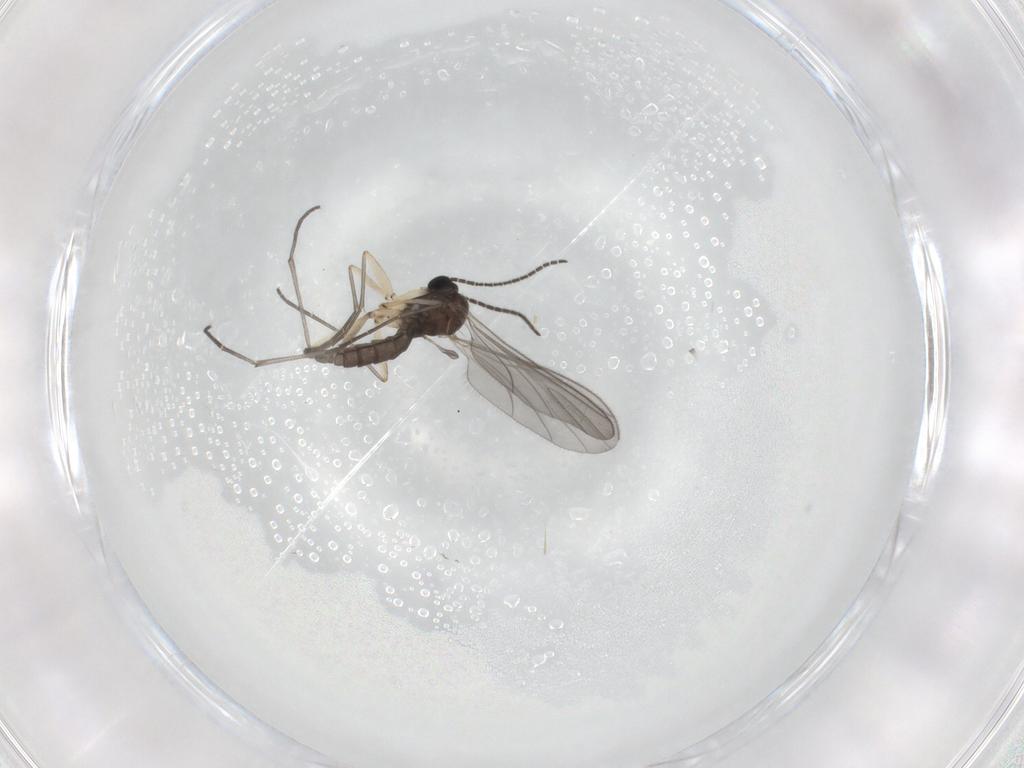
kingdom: Animalia
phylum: Arthropoda
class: Insecta
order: Diptera
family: Sciaridae
